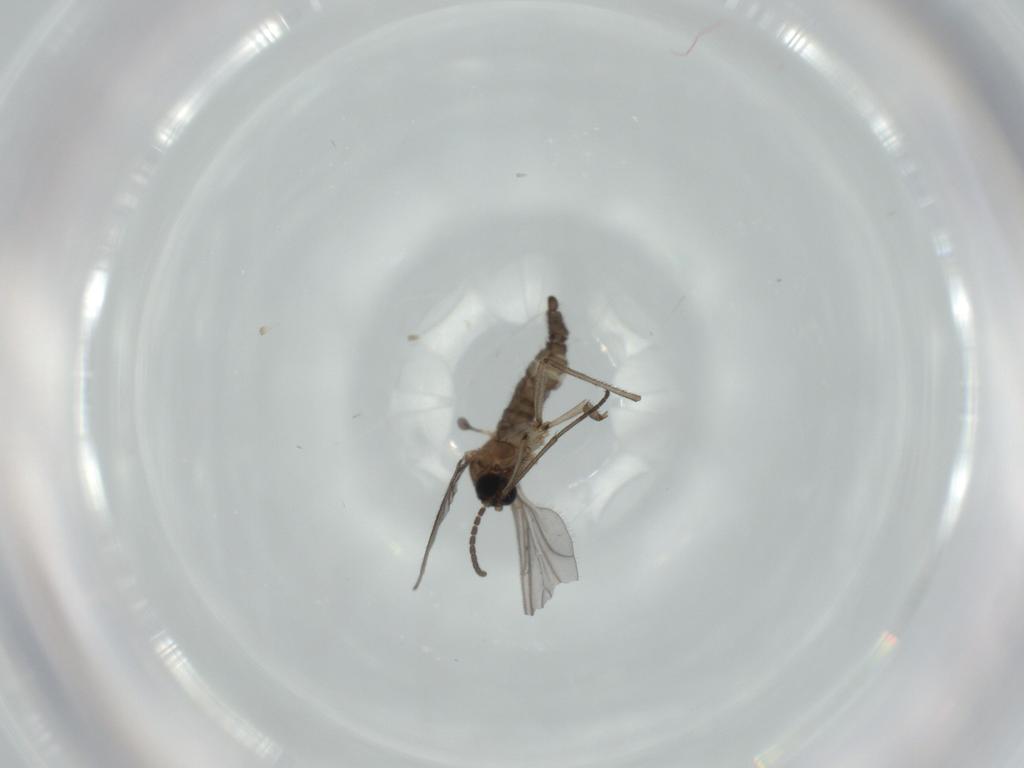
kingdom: Animalia
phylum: Arthropoda
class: Insecta
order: Diptera
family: Sciaridae
